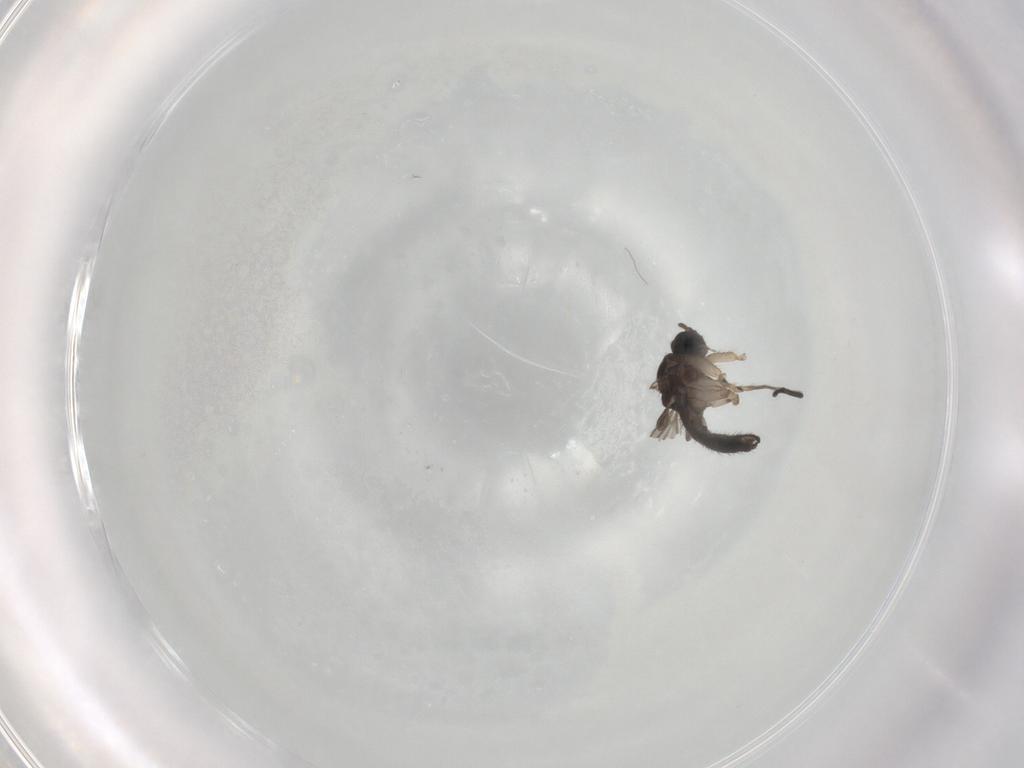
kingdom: Animalia
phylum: Arthropoda
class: Insecta
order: Diptera
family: Sciaridae
